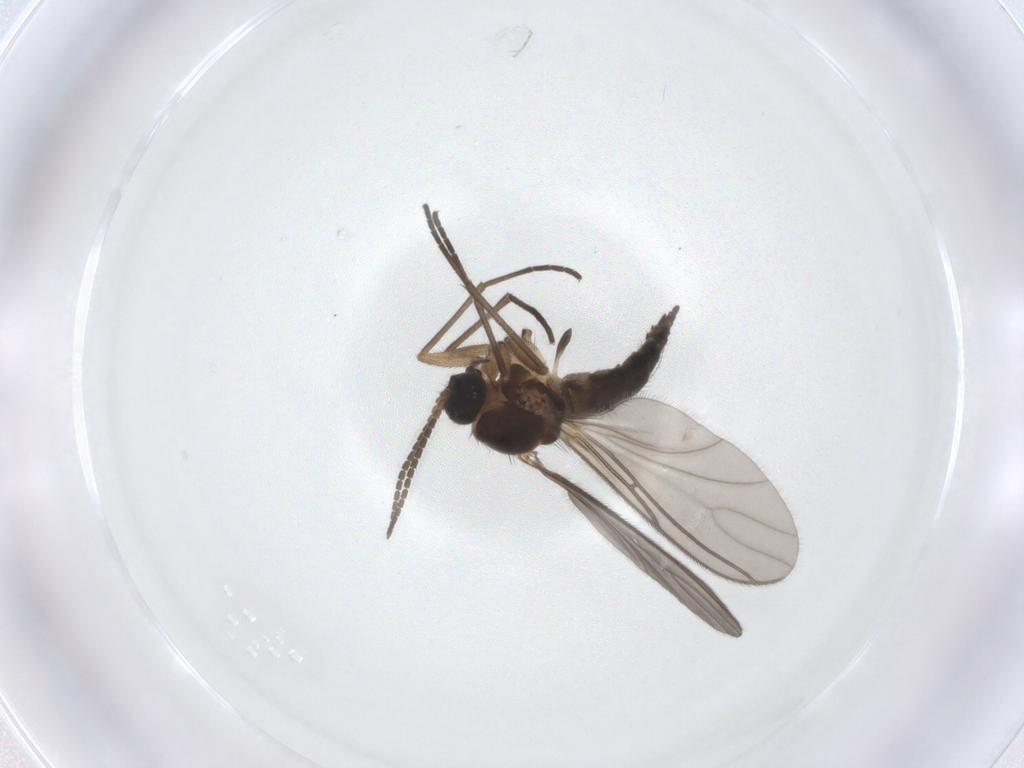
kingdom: Animalia
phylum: Arthropoda
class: Insecta
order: Diptera
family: Sciaridae
